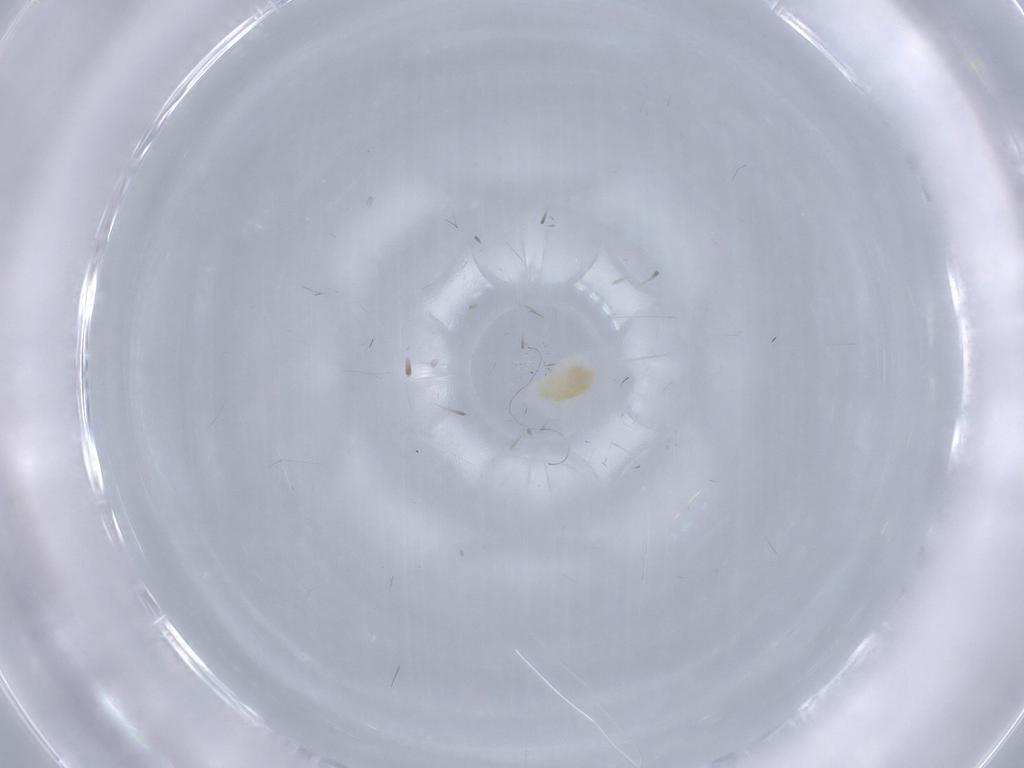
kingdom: Animalia
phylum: Arthropoda
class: Arachnida
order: Trombidiformes
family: Eupodidae
